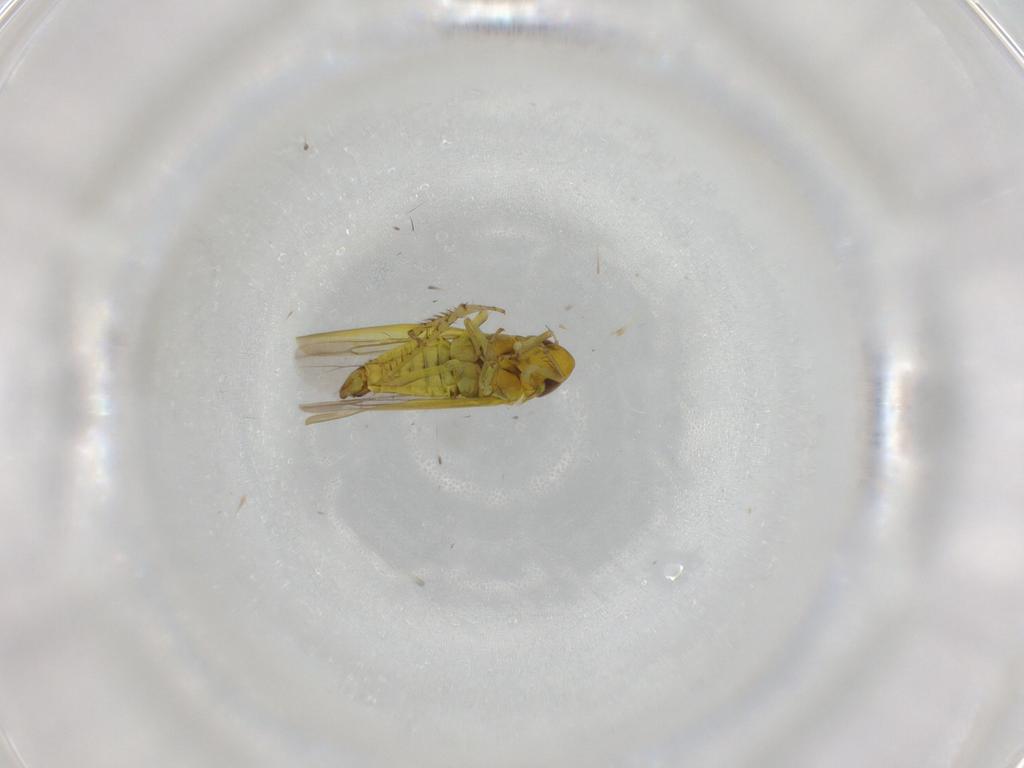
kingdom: Animalia
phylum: Arthropoda
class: Insecta
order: Hemiptera
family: Cicadellidae
